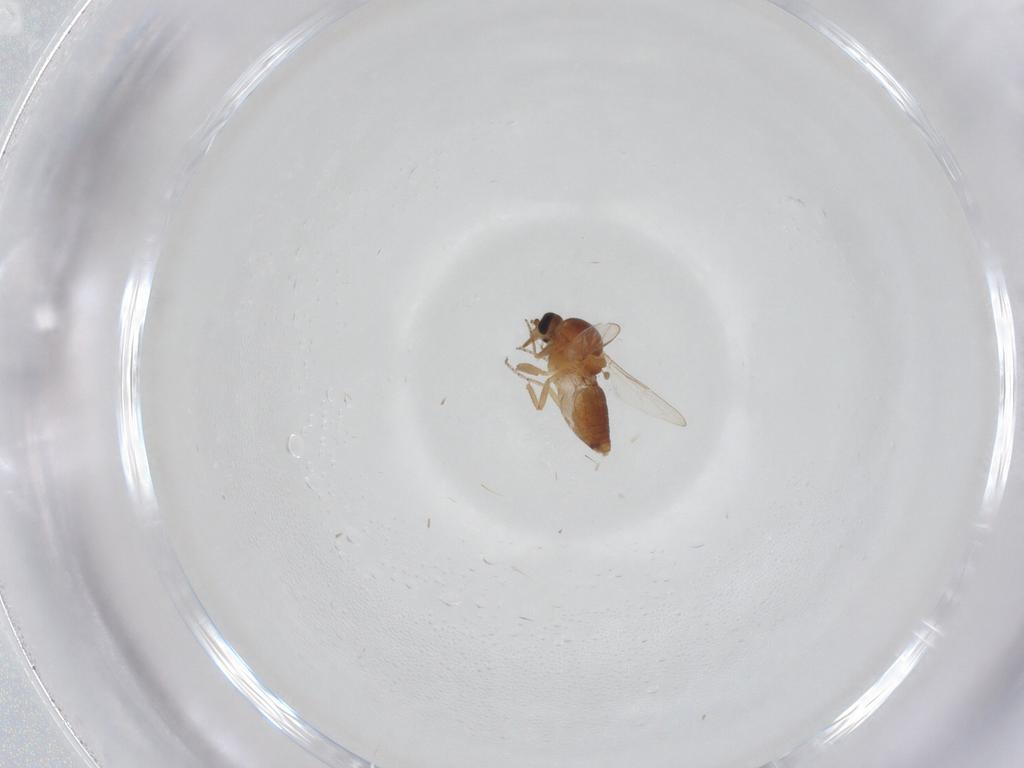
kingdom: Animalia
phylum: Arthropoda
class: Insecta
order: Diptera
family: Ceratopogonidae
